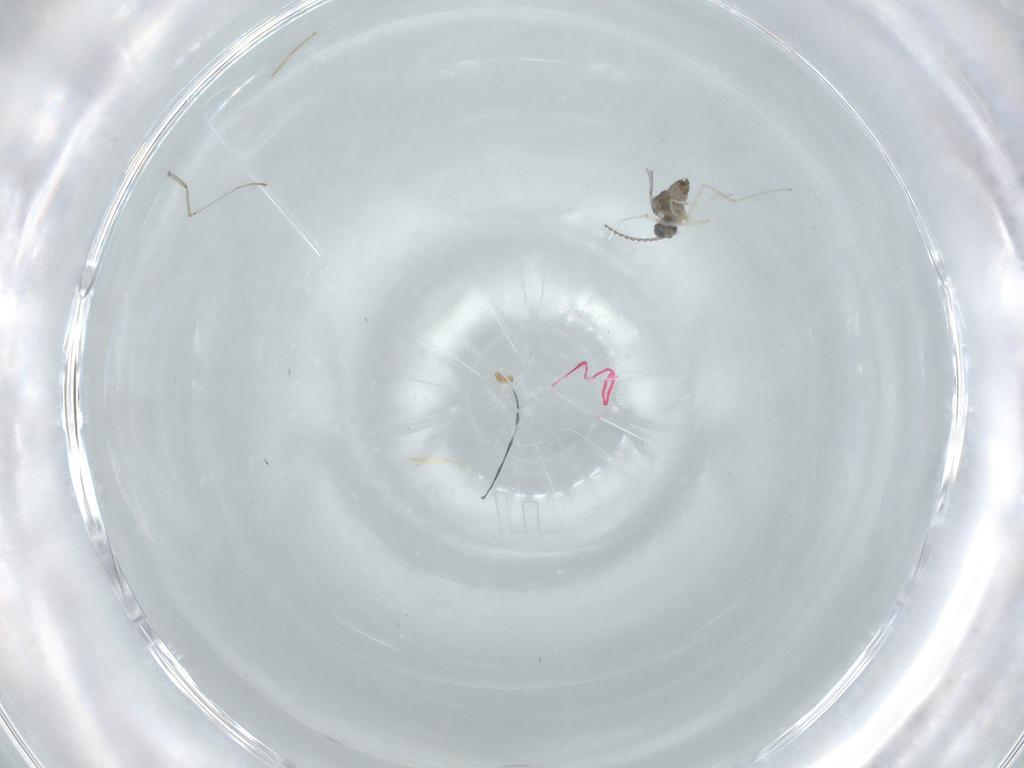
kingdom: Animalia
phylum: Arthropoda
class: Insecta
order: Diptera
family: Cecidomyiidae
